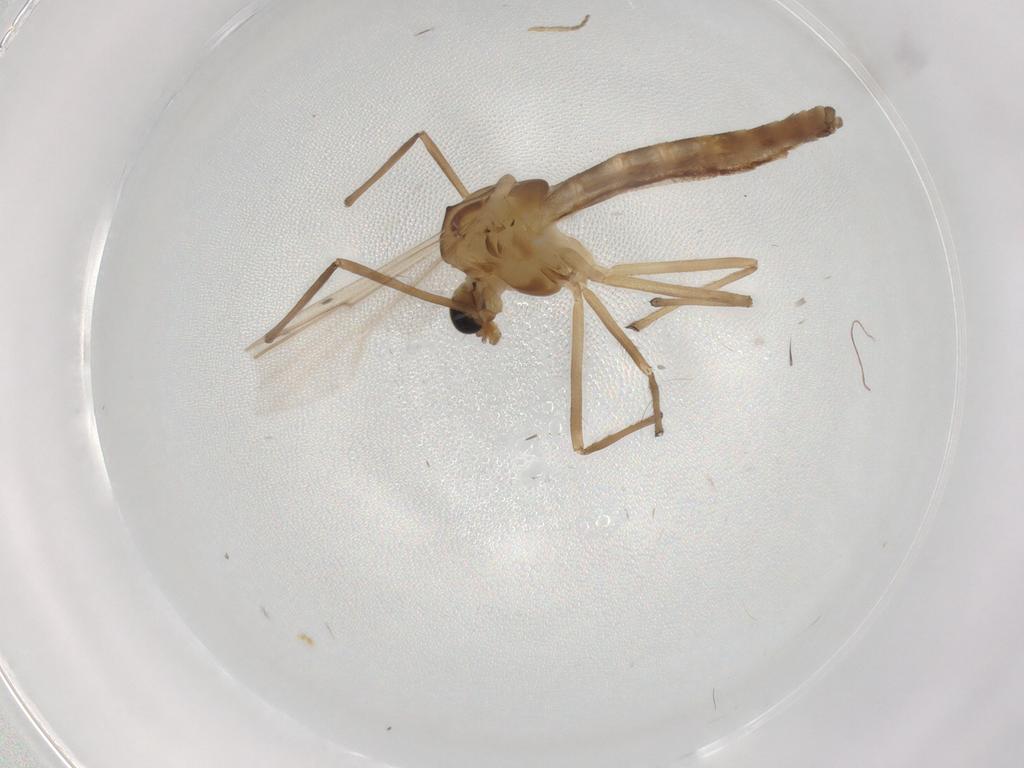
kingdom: Animalia
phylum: Arthropoda
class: Insecta
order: Diptera
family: Chironomidae
